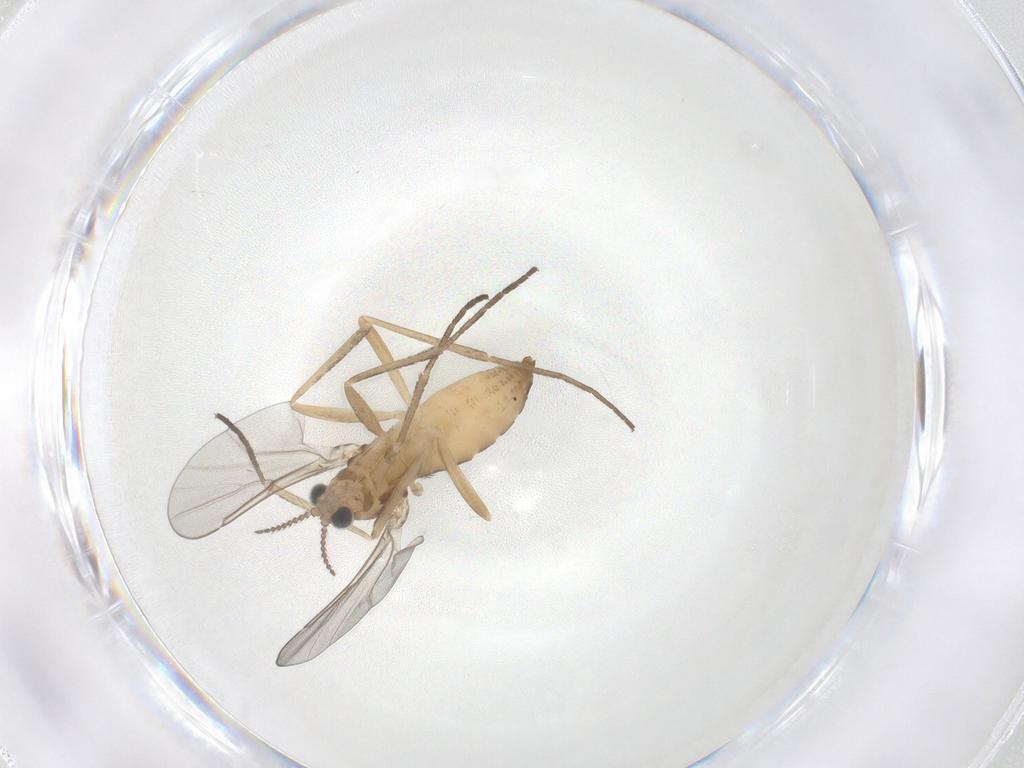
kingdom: Animalia
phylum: Arthropoda
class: Insecta
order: Diptera
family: Cecidomyiidae
